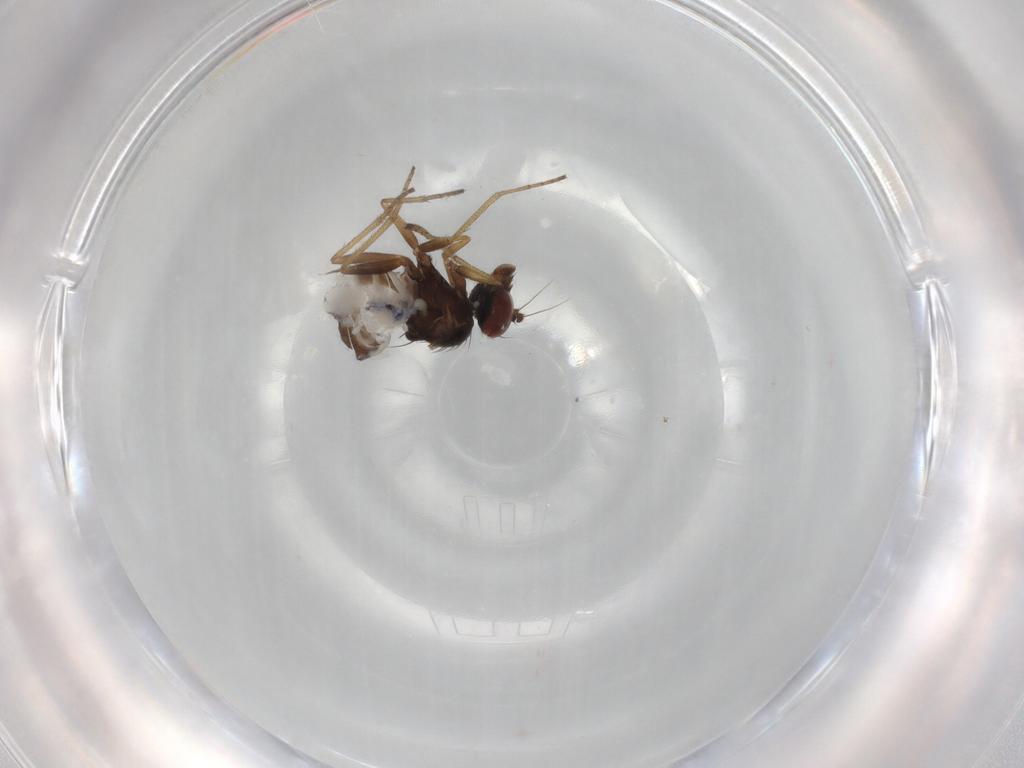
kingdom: Animalia
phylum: Arthropoda
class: Insecta
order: Diptera
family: Dolichopodidae
